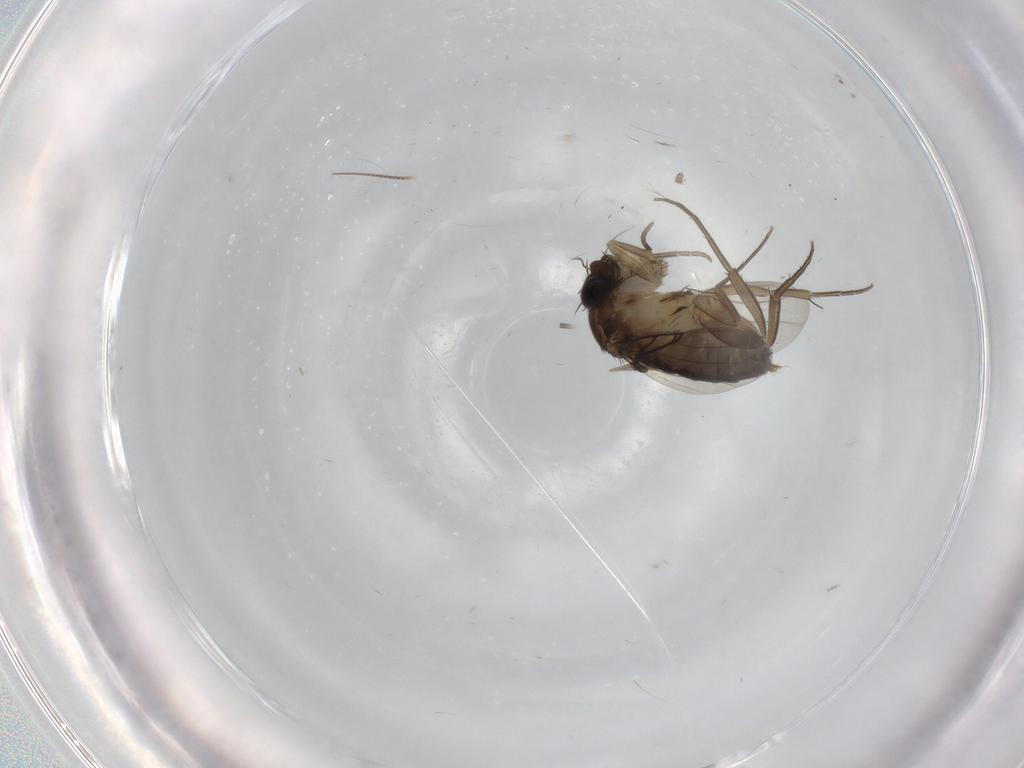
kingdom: Animalia
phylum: Arthropoda
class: Insecta
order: Diptera
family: Phoridae
